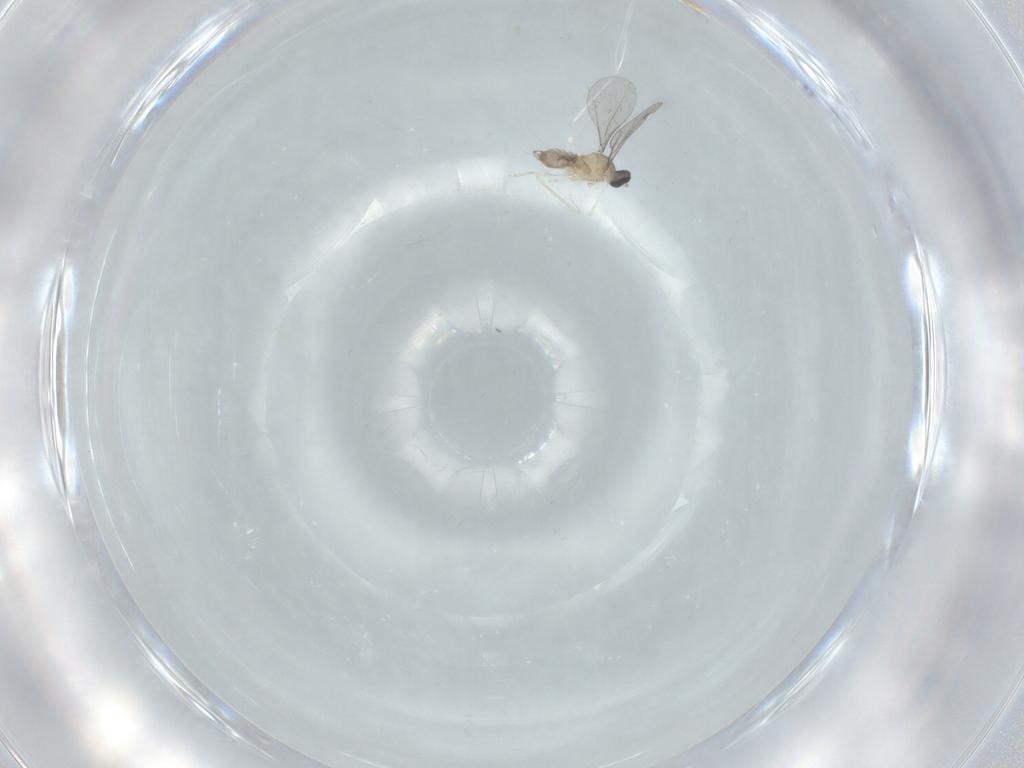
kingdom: Animalia
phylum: Arthropoda
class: Insecta
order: Diptera
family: Cecidomyiidae
